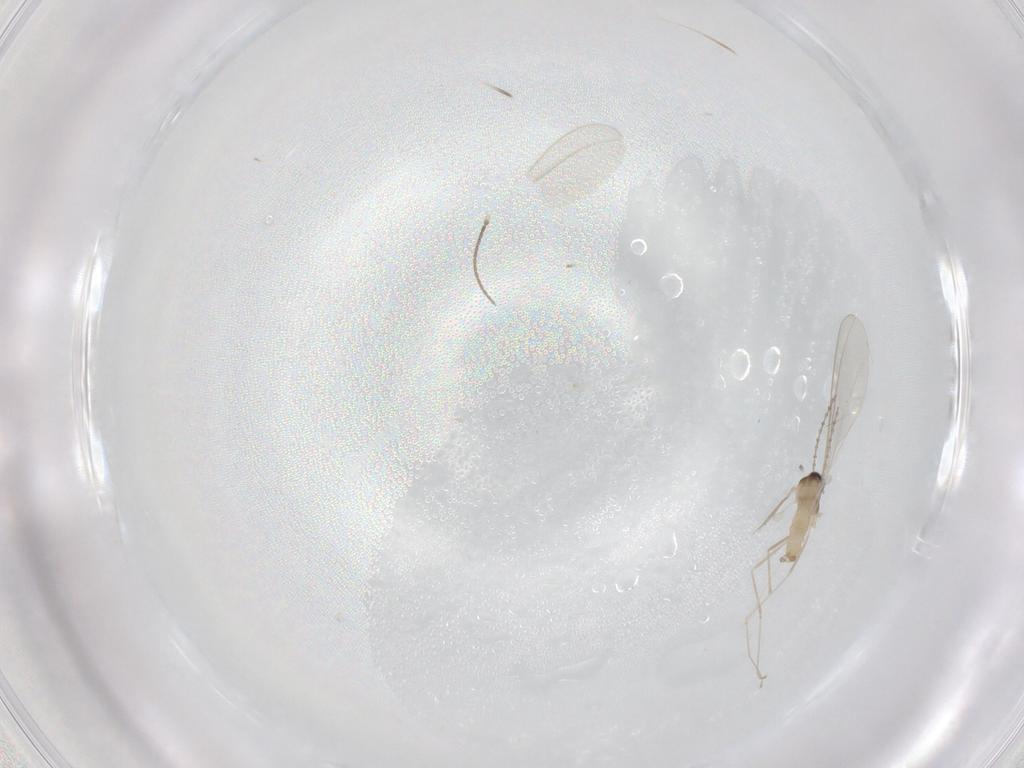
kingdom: Animalia
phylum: Arthropoda
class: Insecta
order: Diptera
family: Cecidomyiidae
